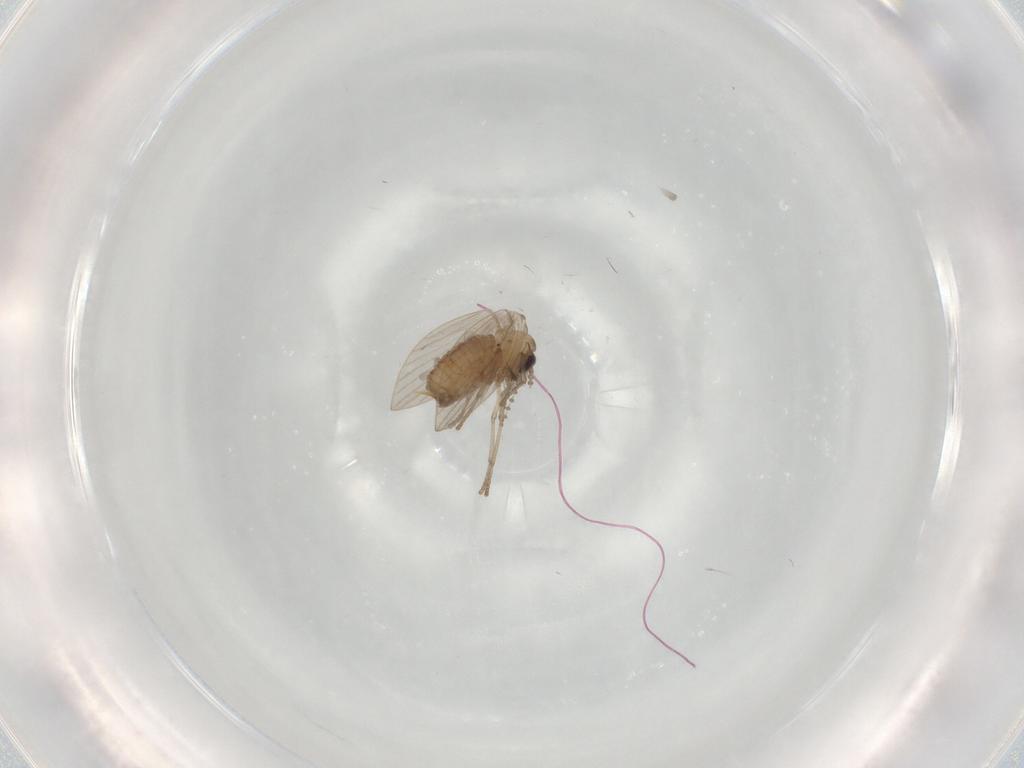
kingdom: Animalia
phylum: Arthropoda
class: Insecta
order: Diptera
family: Psychodidae
